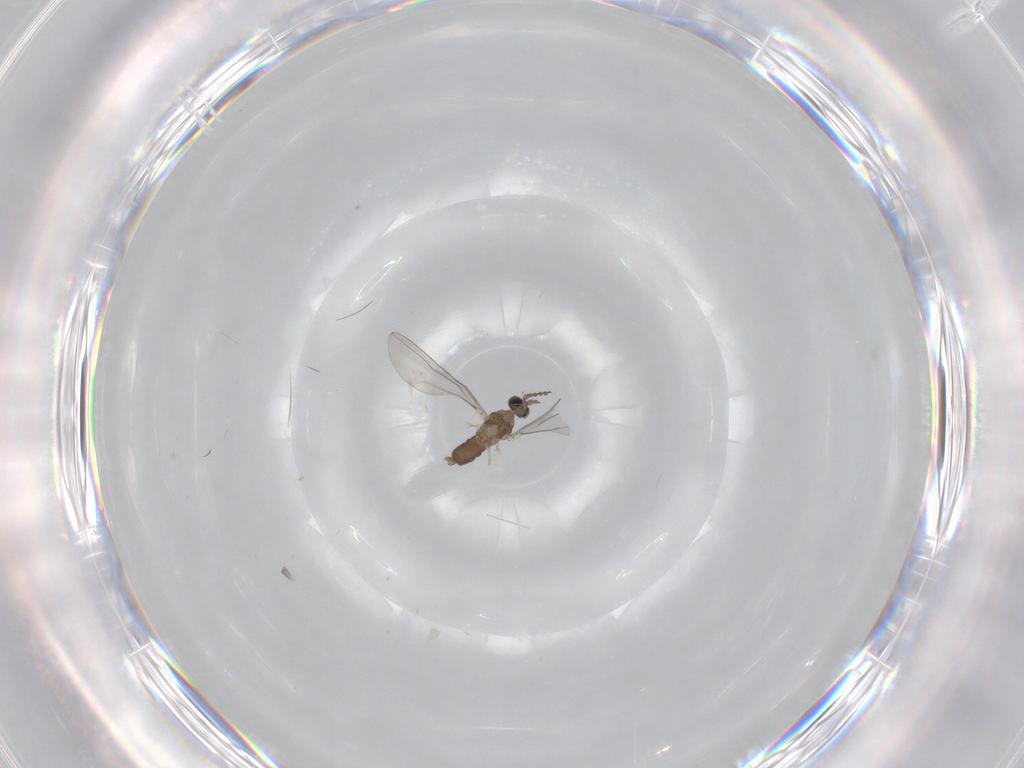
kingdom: Animalia
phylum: Arthropoda
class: Insecta
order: Diptera
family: Cecidomyiidae
